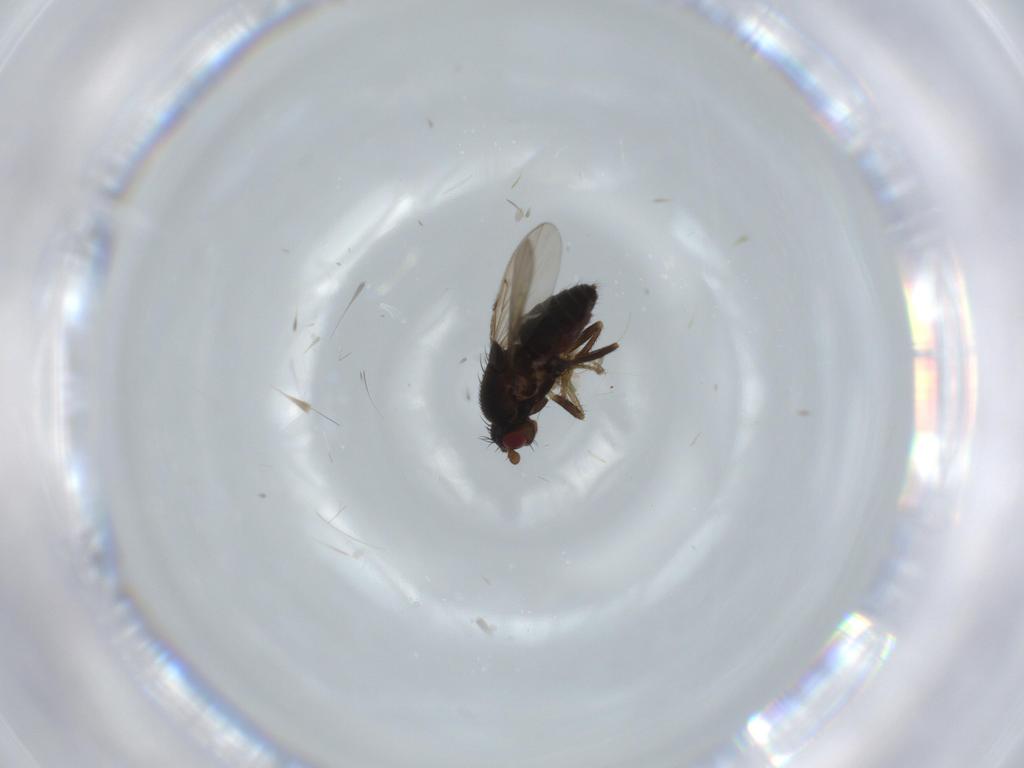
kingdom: Animalia
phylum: Arthropoda
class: Insecta
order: Diptera
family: Sphaeroceridae
